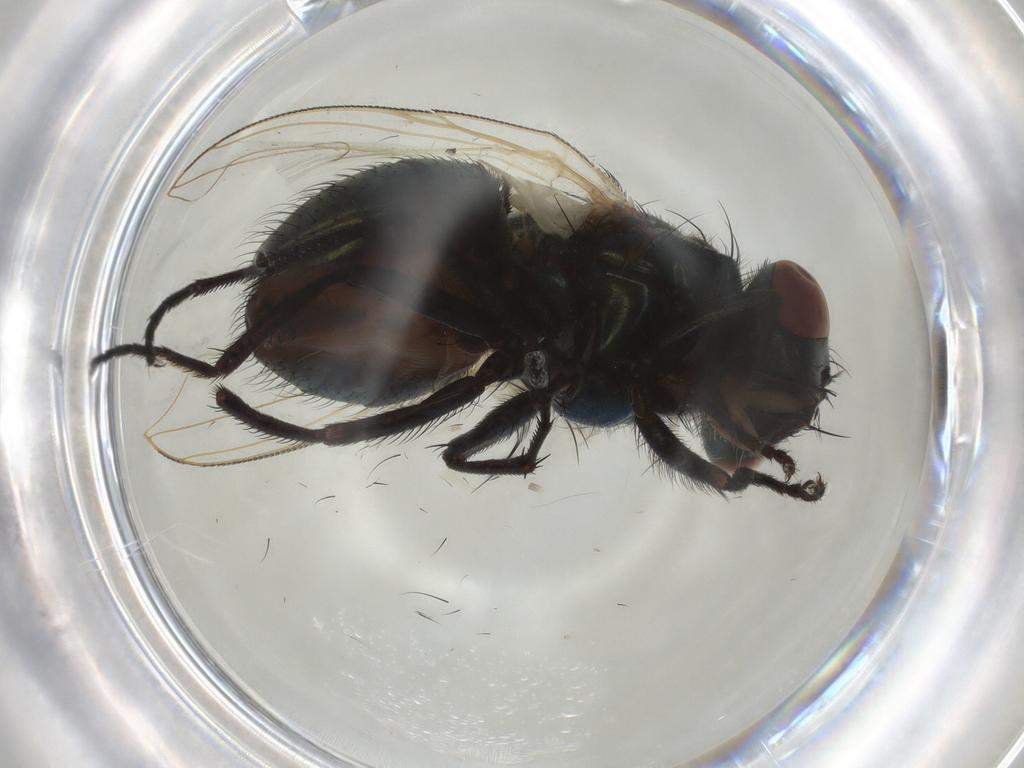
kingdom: Animalia
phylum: Arthropoda
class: Insecta
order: Diptera
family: Muscidae
